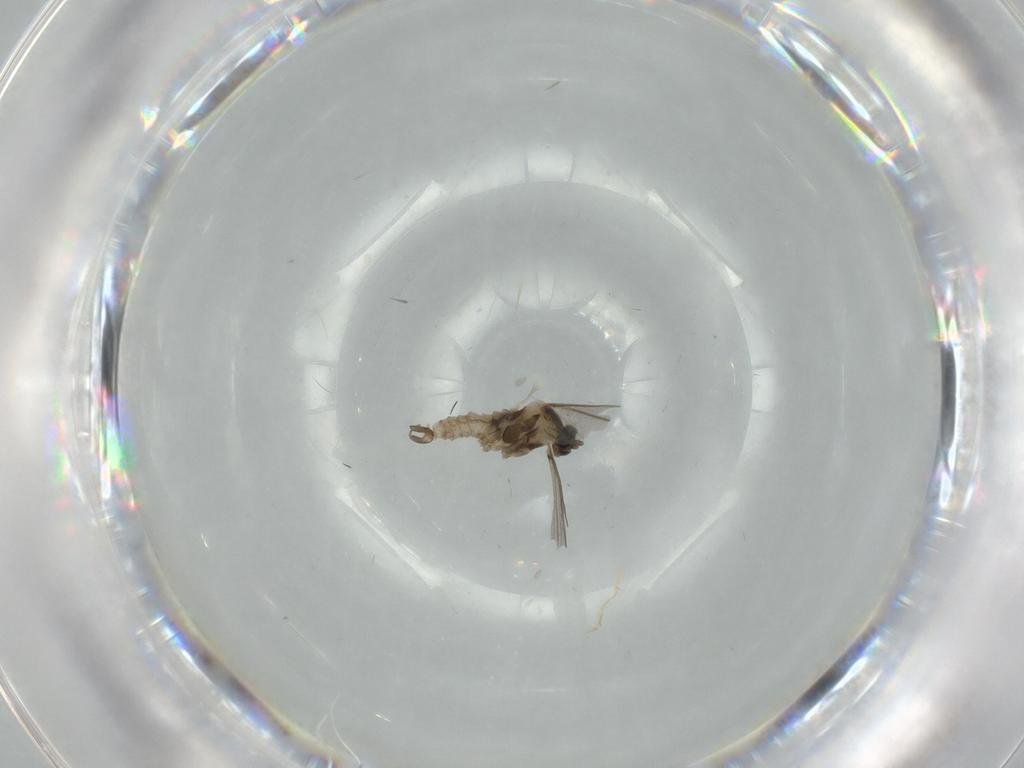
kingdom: Animalia
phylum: Arthropoda
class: Insecta
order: Diptera
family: Cecidomyiidae
